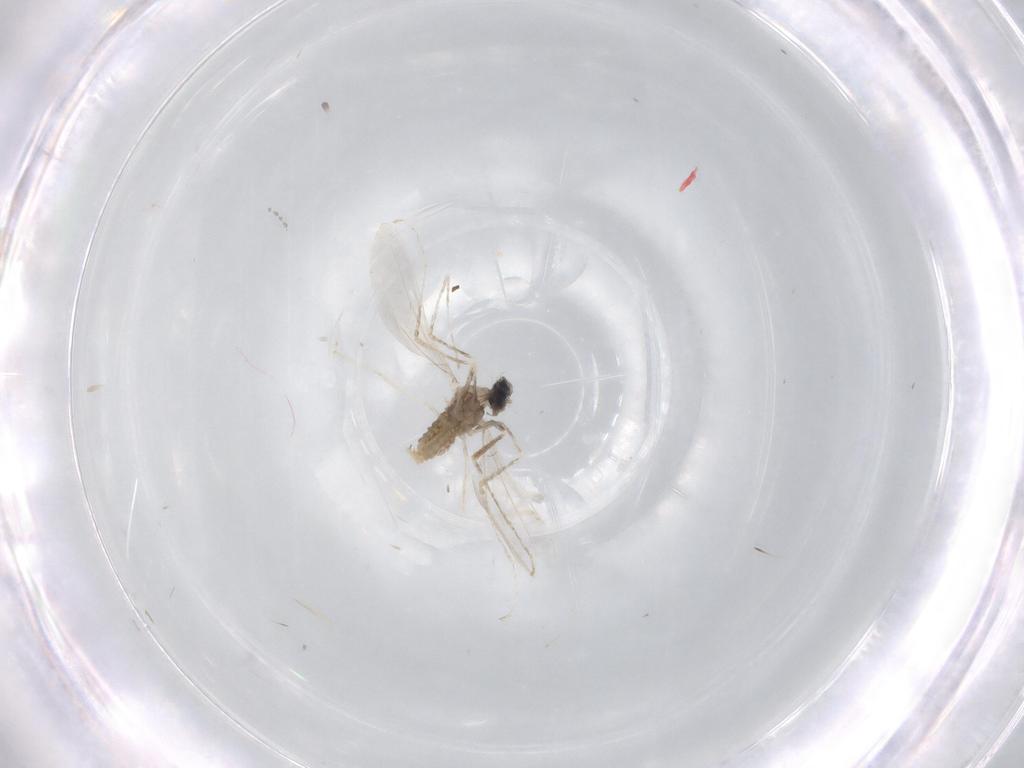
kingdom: Animalia
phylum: Arthropoda
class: Insecta
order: Diptera
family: Cecidomyiidae
